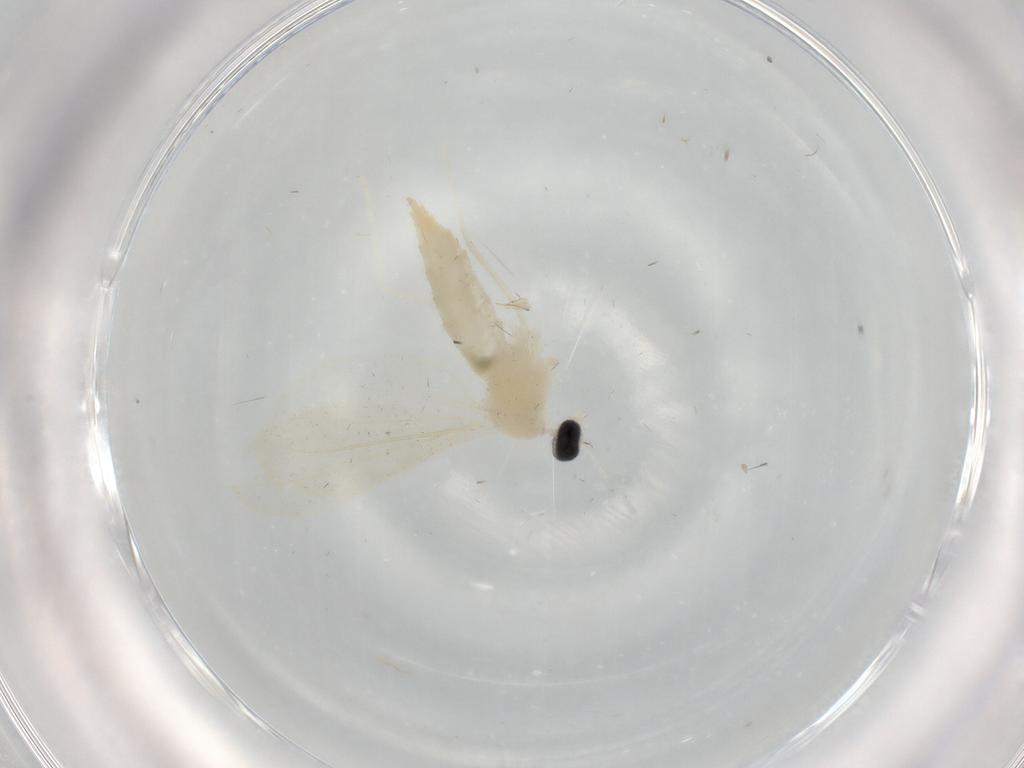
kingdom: Animalia
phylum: Arthropoda
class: Insecta
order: Diptera
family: Cecidomyiidae
